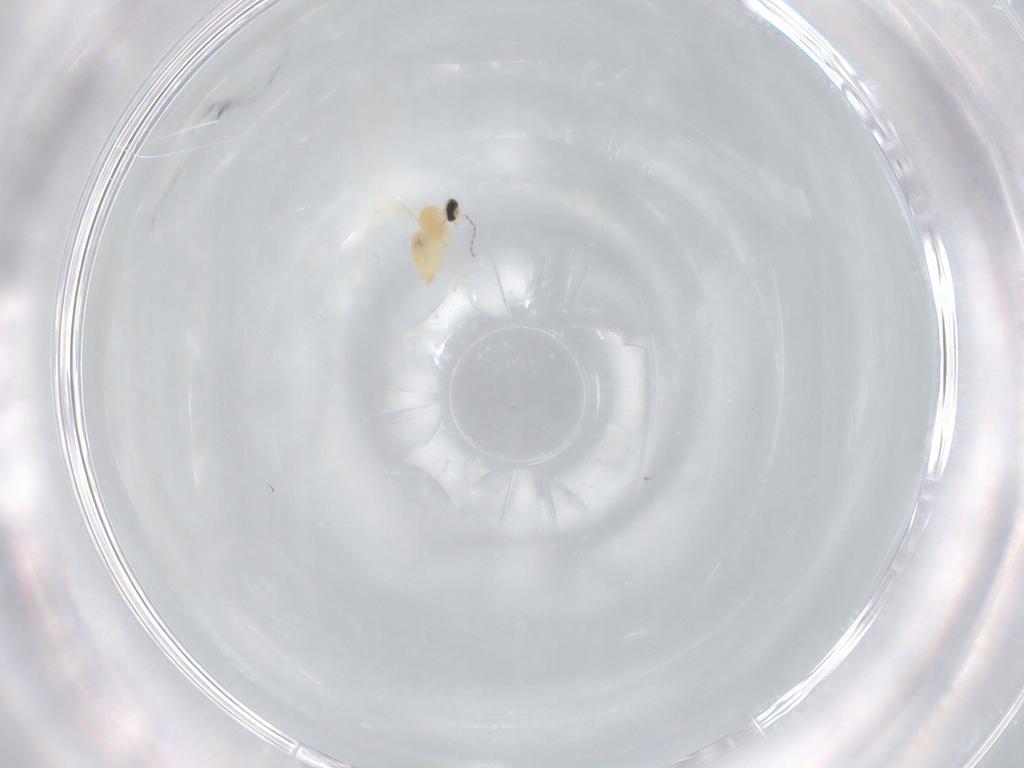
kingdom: Animalia
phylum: Arthropoda
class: Insecta
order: Diptera
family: Cecidomyiidae
